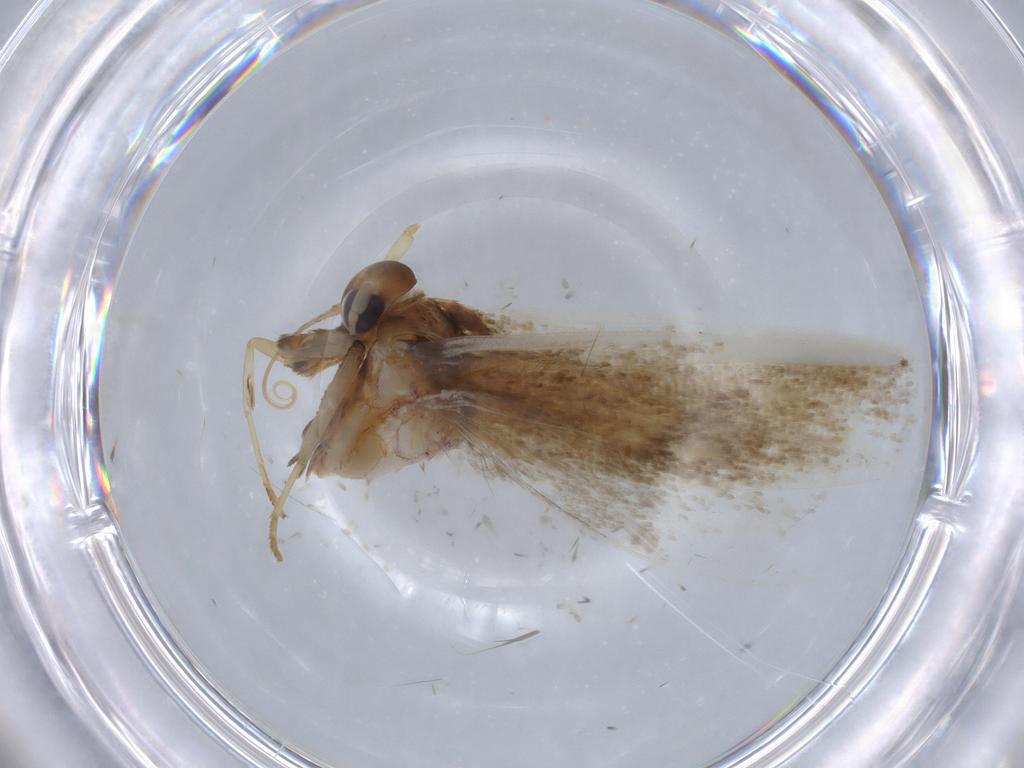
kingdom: Animalia
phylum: Arthropoda
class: Insecta
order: Lepidoptera
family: Blastobasidae
